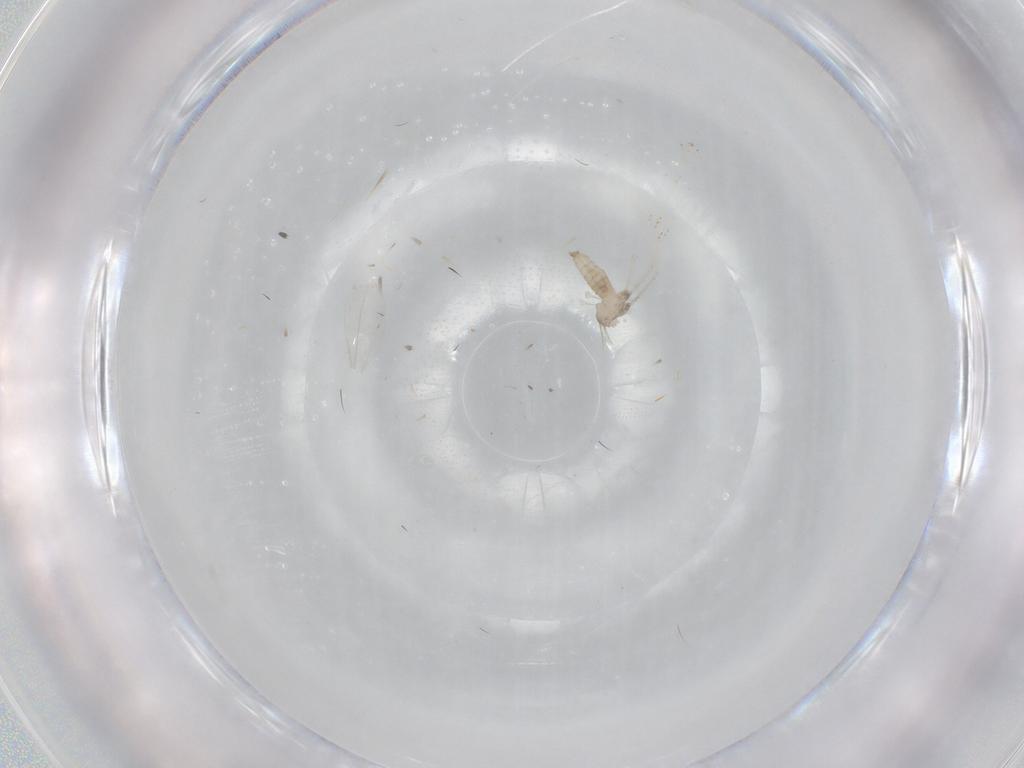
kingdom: Animalia
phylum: Arthropoda
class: Insecta
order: Diptera
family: Cecidomyiidae
